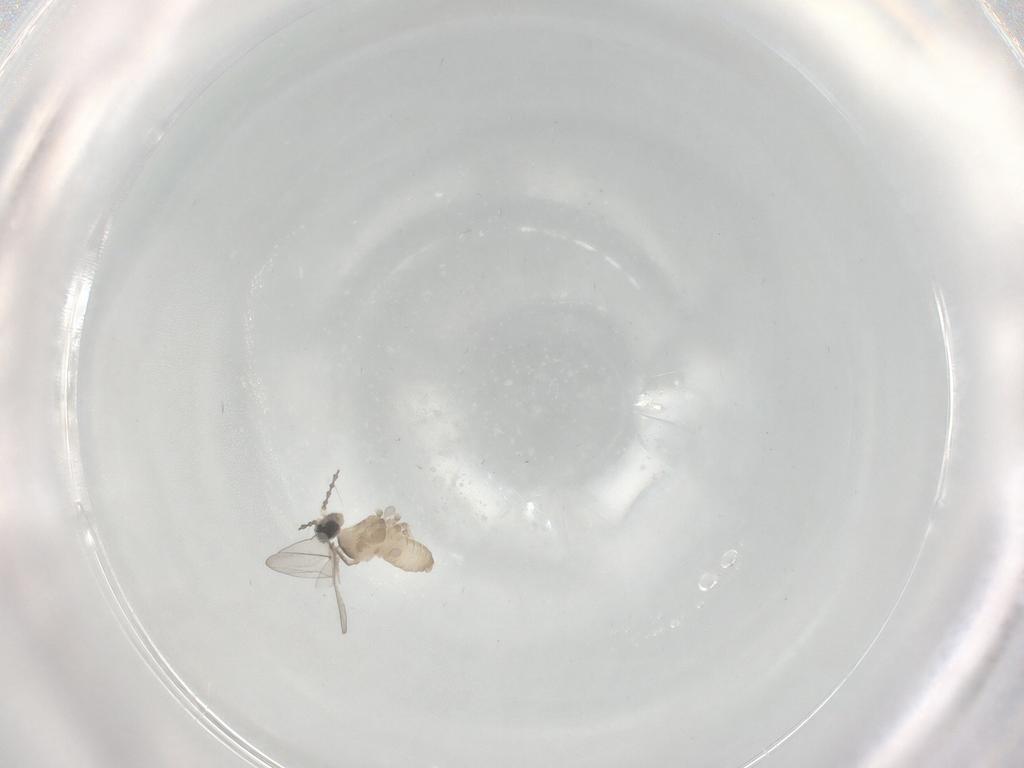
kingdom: Animalia
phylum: Arthropoda
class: Insecta
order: Diptera
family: Cecidomyiidae
